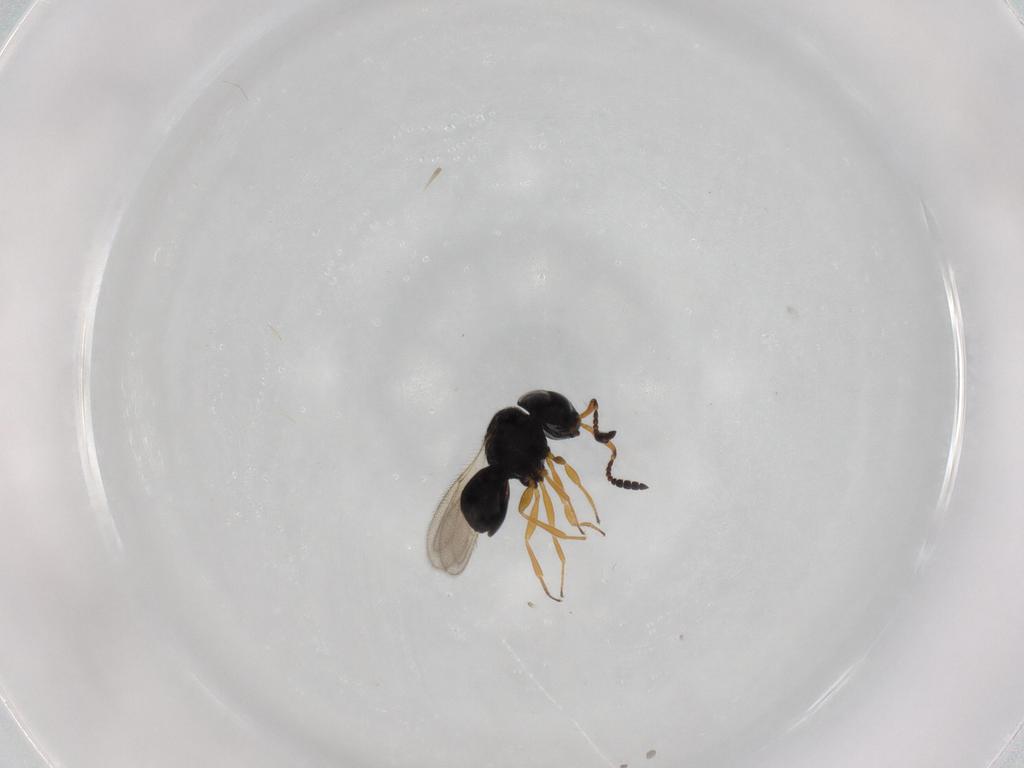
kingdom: Animalia
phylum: Arthropoda
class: Insecta
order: Hymenoptera
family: Scelionidae
